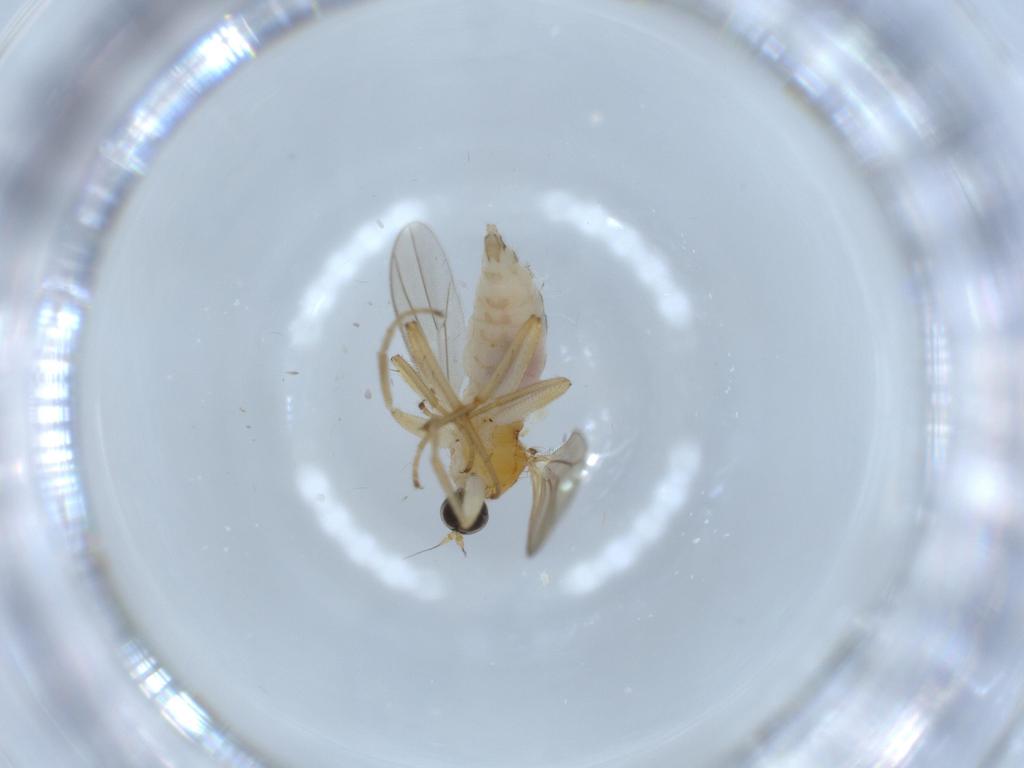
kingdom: Animalia
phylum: Arthropoda
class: Insecta
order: Diptera
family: Hybotidae
